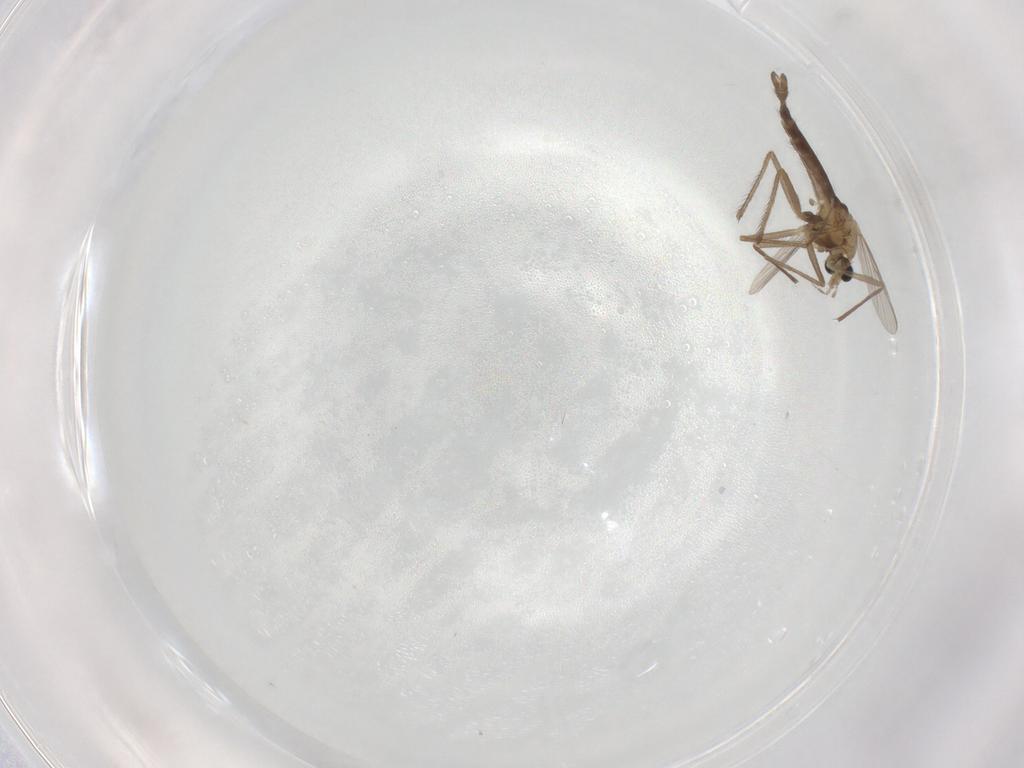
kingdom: Animalia
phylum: Arthropoda
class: Insecta
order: Diptera
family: Chironomidae
